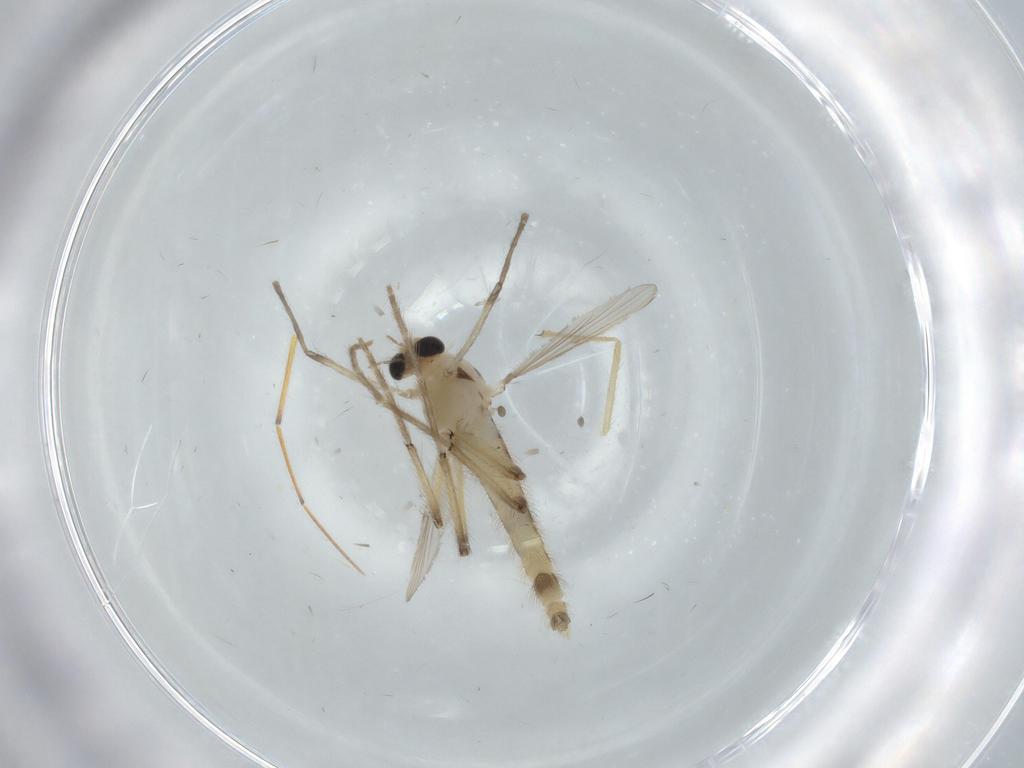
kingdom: Animalia
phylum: Arthropoda
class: Insecta
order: Diptera
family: Chironomidae
